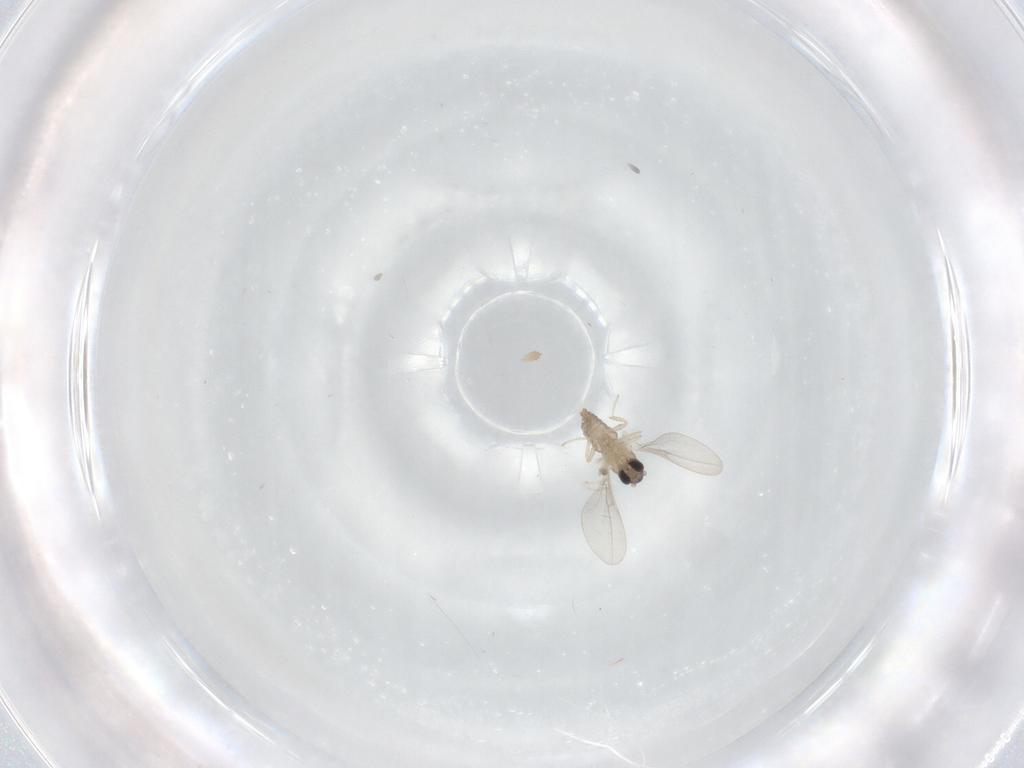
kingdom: Animalia
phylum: Arthropoda
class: Insecta
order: Diptera
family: Cecidomyiidae
